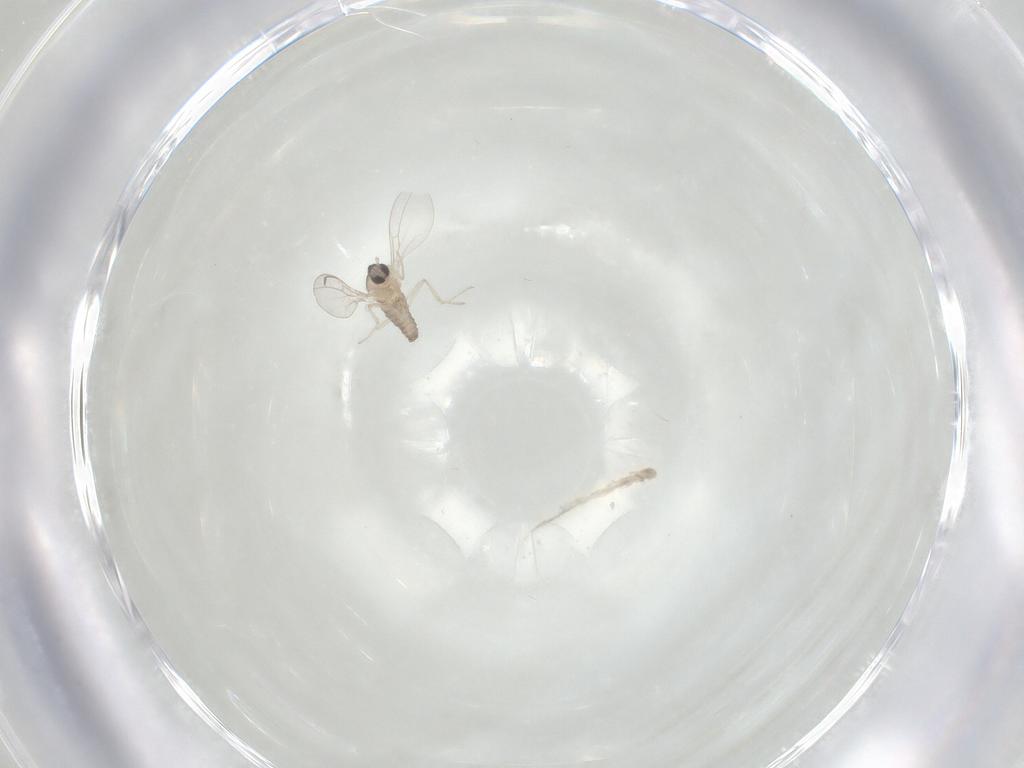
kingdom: Animalia
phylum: Arthropoda
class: Insecta
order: Diptera
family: Cecidomyiidae
